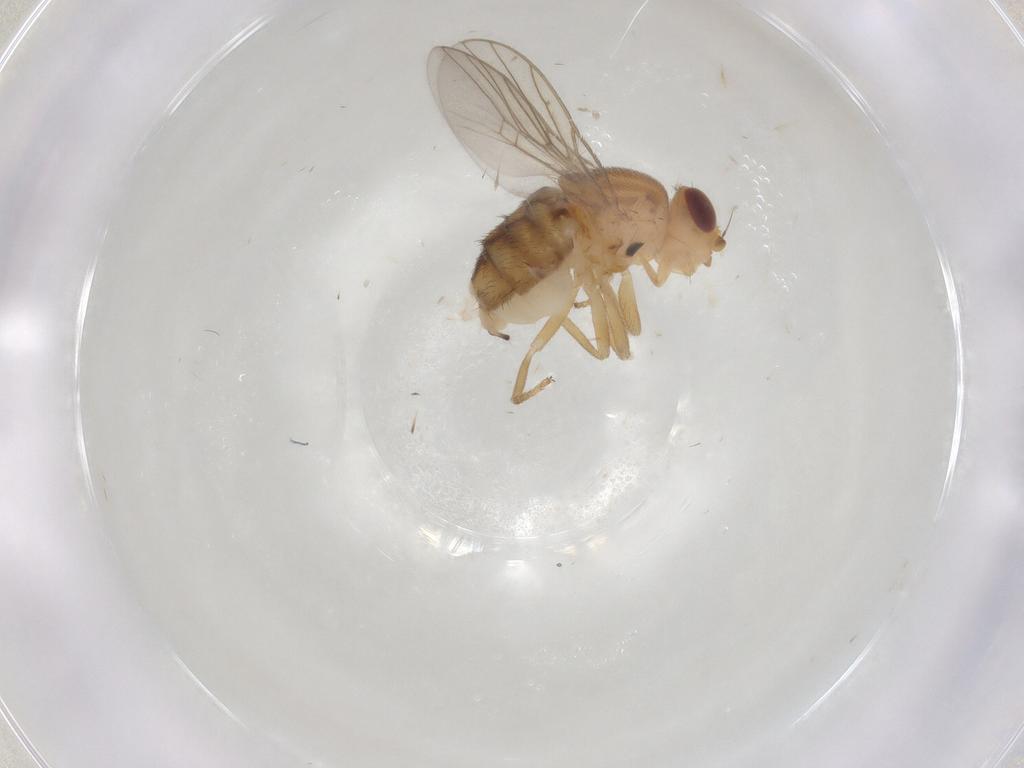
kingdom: Animalia
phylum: Arthropoda
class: Insecta
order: Diptera
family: Chloropidae
